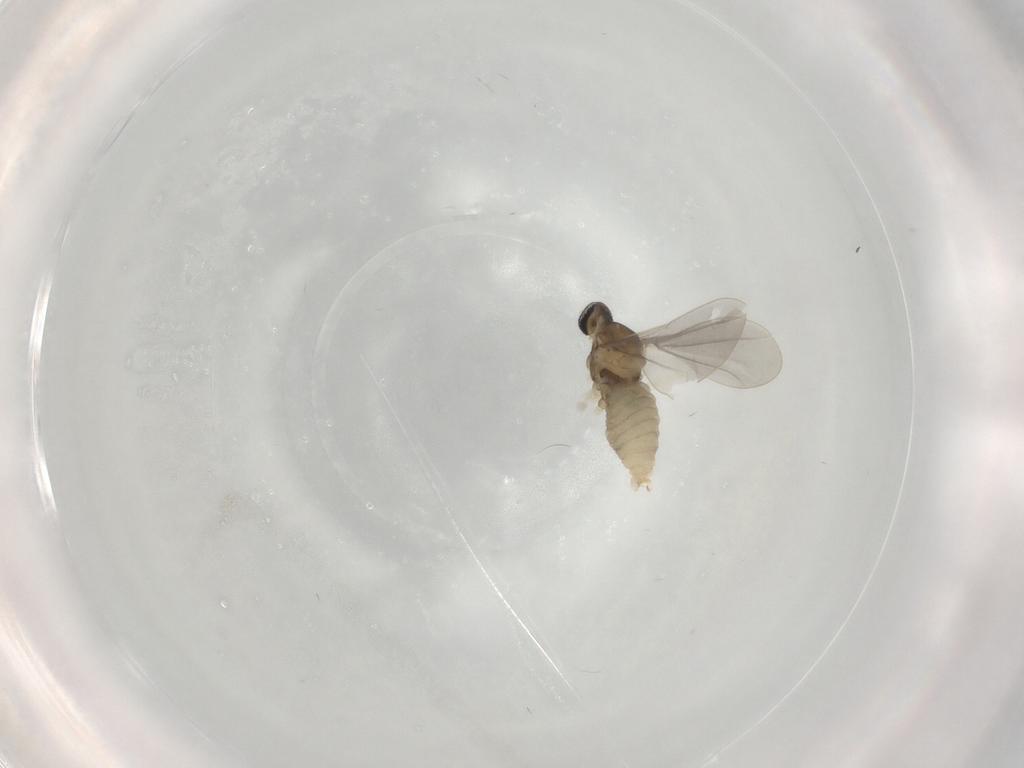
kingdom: Animalia
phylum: Arthropoda
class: Insecta
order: Diptera
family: Cecidomyiidae
